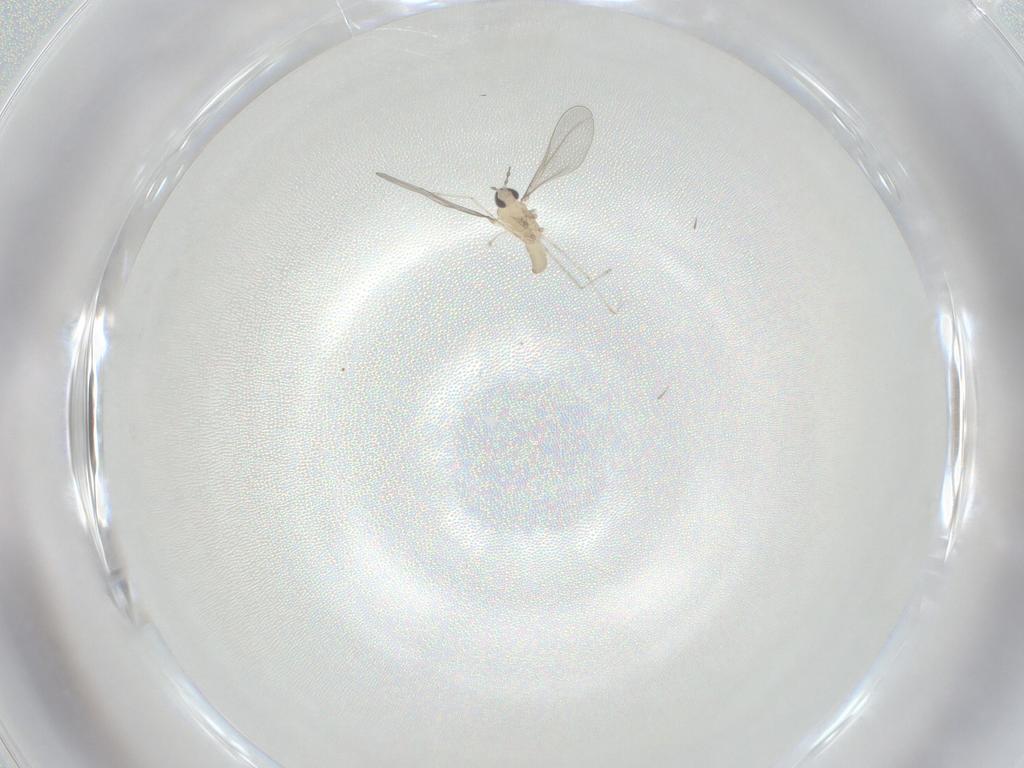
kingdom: Animalia
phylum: Arthropoda
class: Insecta
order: Diptera
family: Cecidomyiidae
